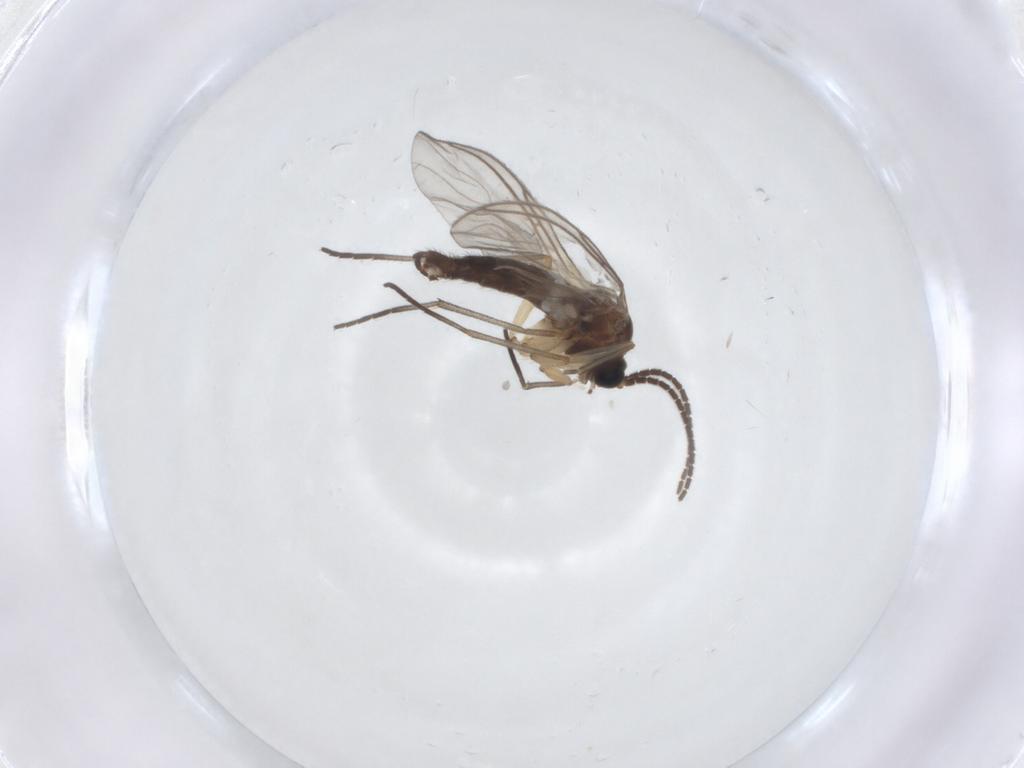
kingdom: Animalia
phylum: Arthropoda
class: Insecta
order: Diptera
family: Sciaridae
